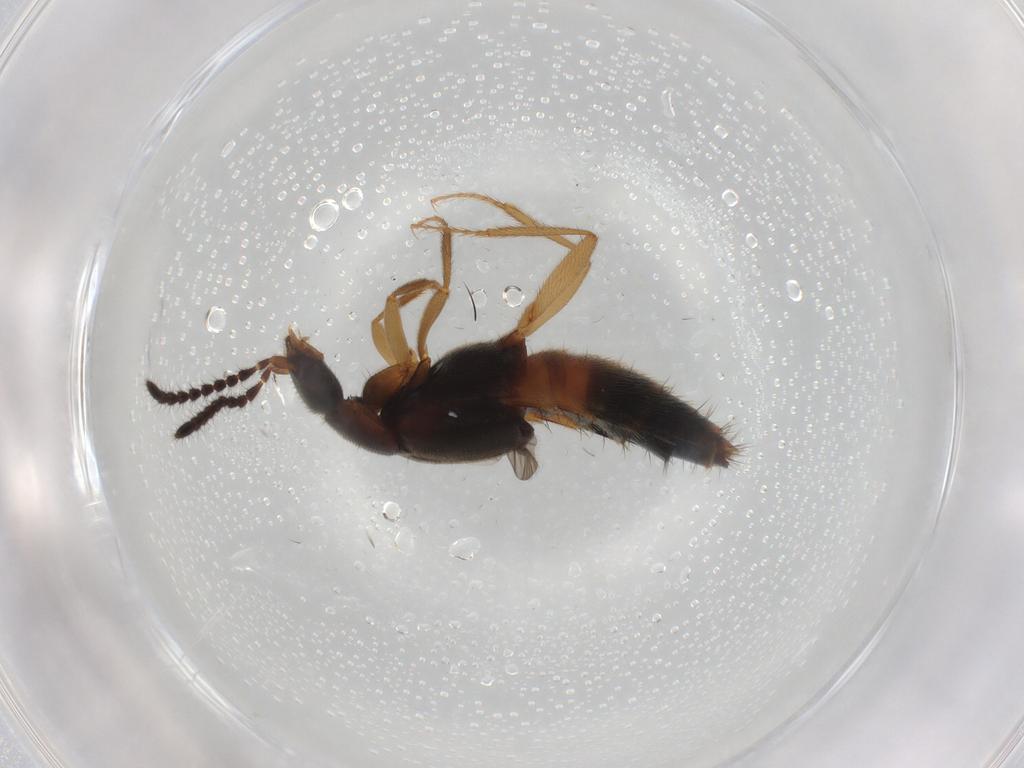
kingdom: Animalia
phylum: Arthropoda
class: Insecta
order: Coleoptera
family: Staphylinidae
